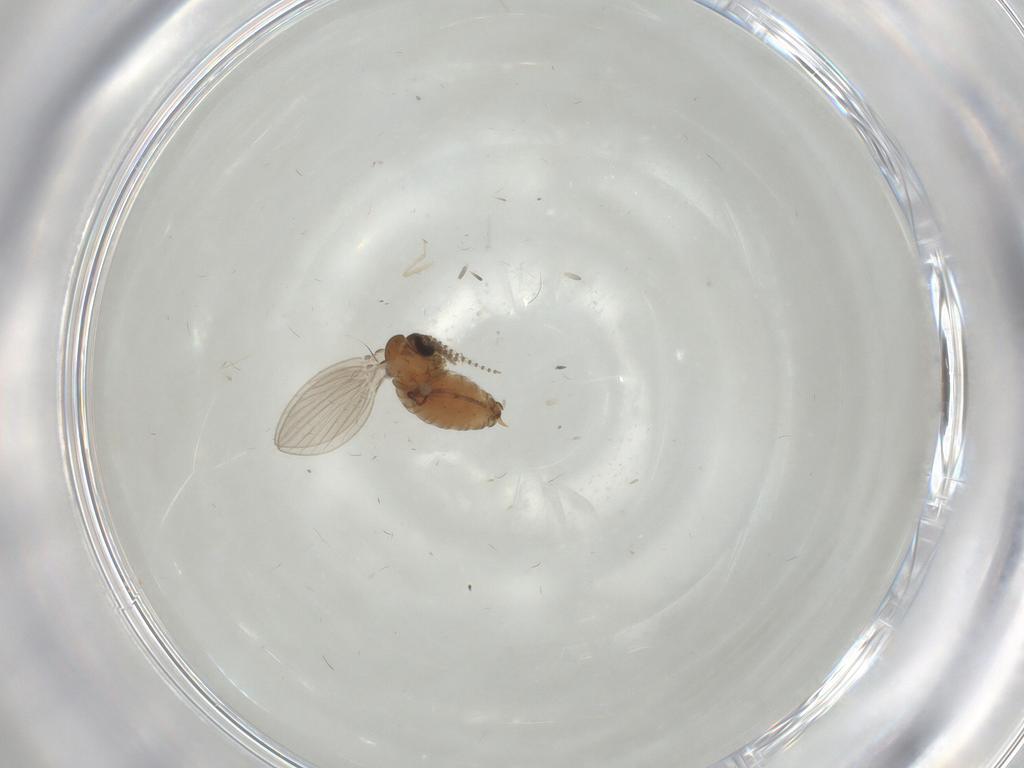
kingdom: Animalia
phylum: Arthropoda
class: Insecta
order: Diptera
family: Psychodidae
